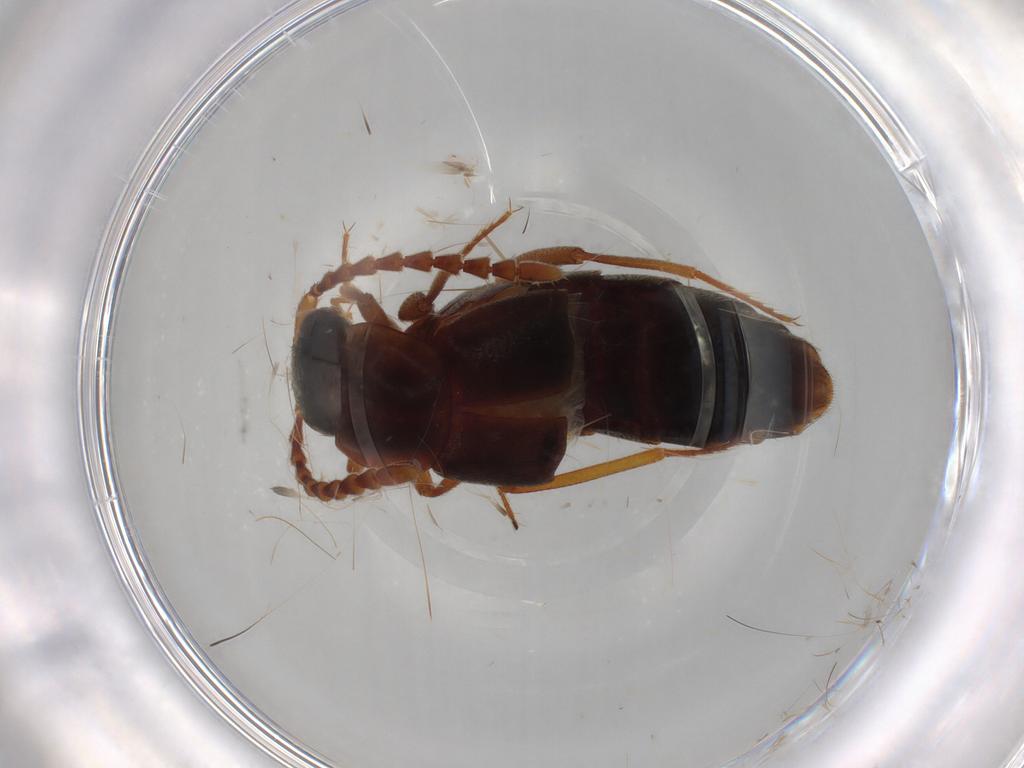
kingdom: Animalia
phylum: Arthropoda
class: Insecta
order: Coleoptera
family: Staphylinidae
